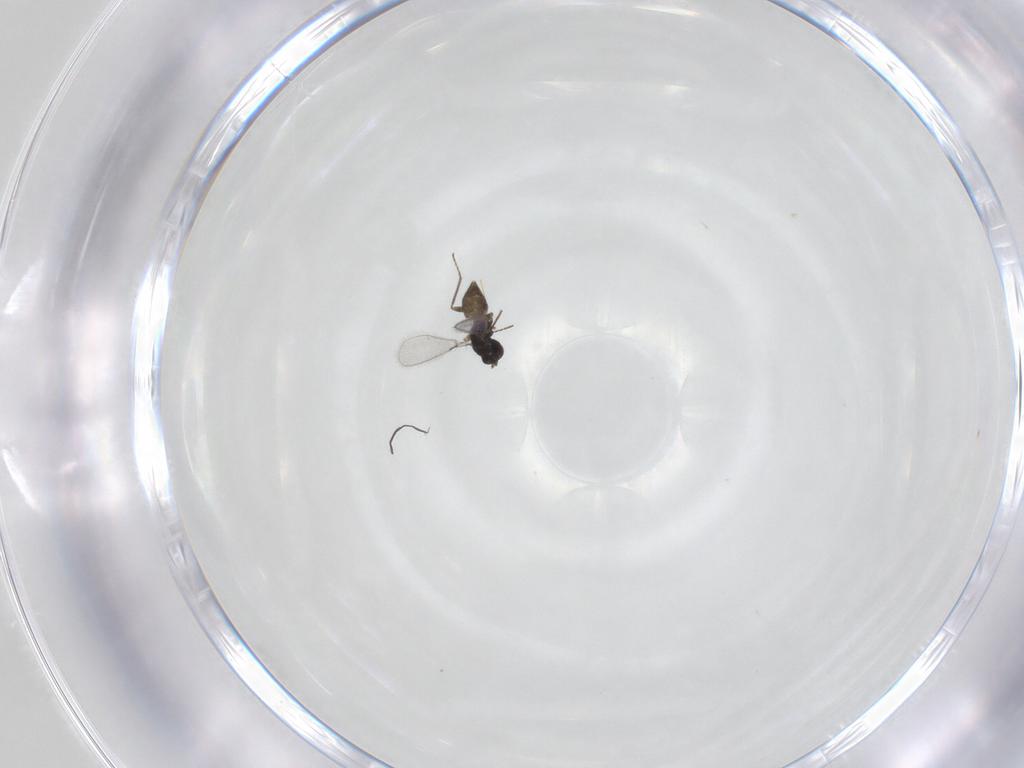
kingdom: Animalia
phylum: Arthropoda
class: Insecta
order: Hymenoptera
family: Mymaridae
